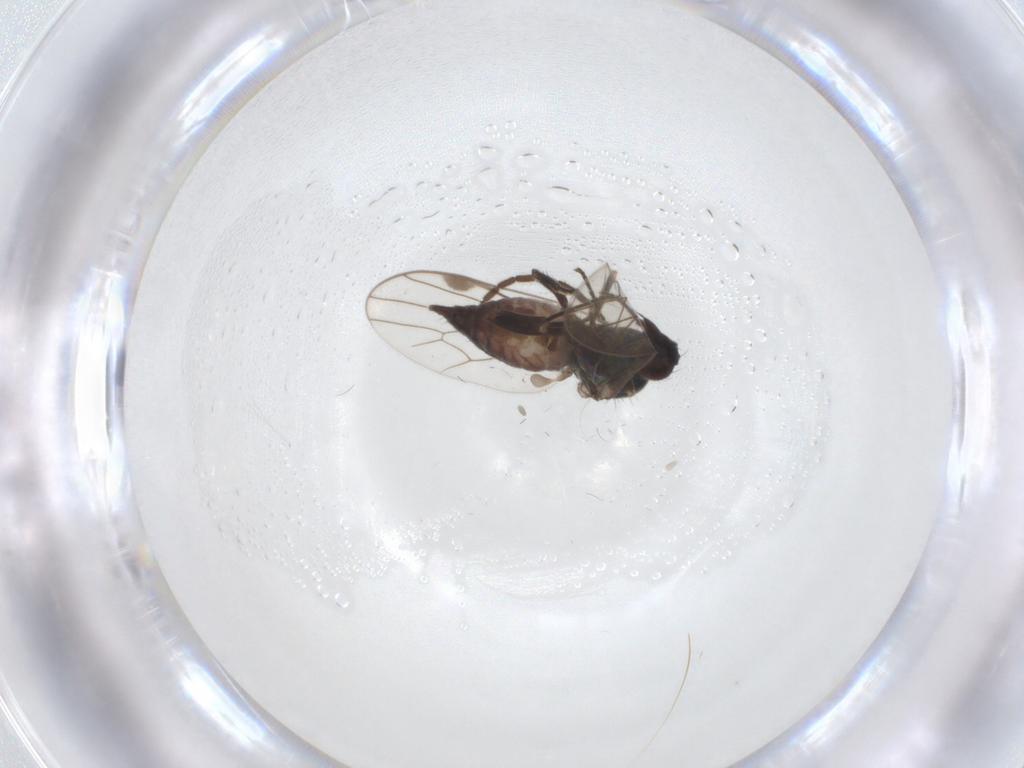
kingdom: Animalia
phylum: Arthropoda
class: Insecta
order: Diptera
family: Muscidae
